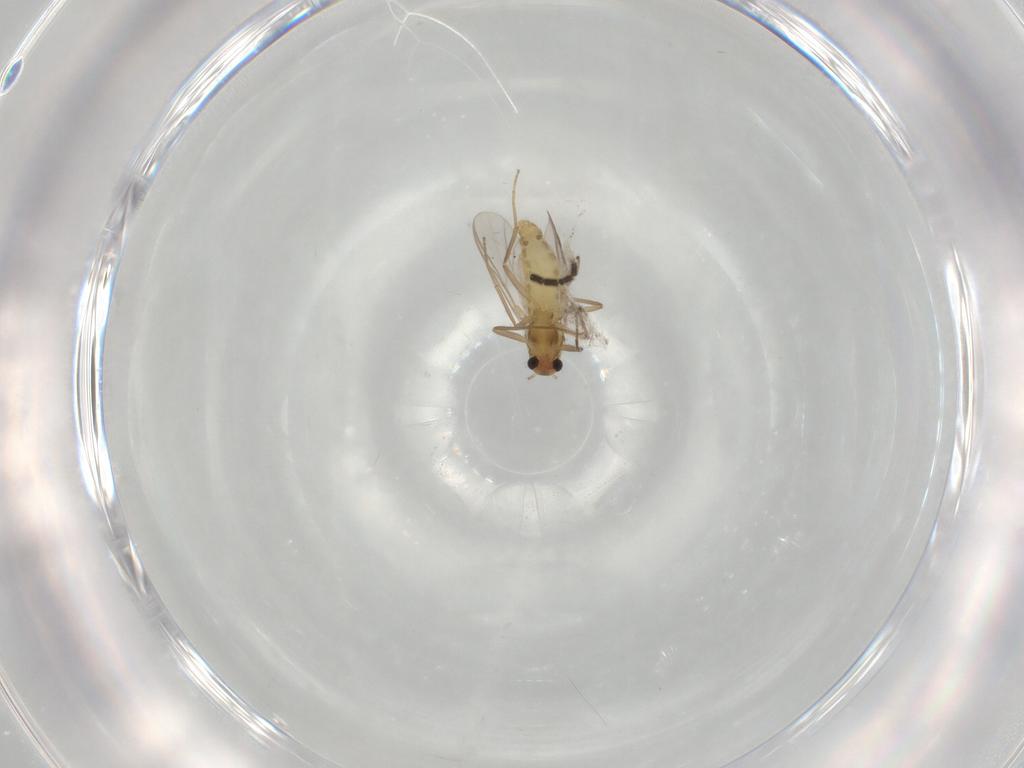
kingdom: Animalia
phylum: Arthropoda
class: Insecta
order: Diptera
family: Chironomidae
